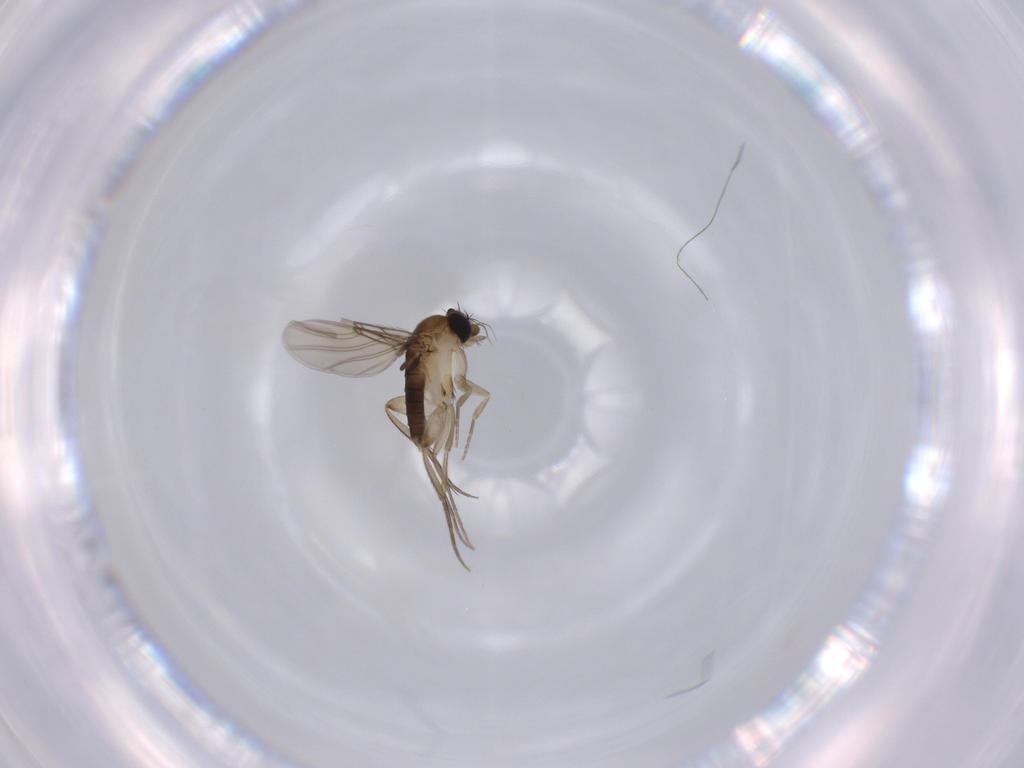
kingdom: Animalia
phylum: Arthropoda
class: Insecta
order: Diptera
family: Phoridae
